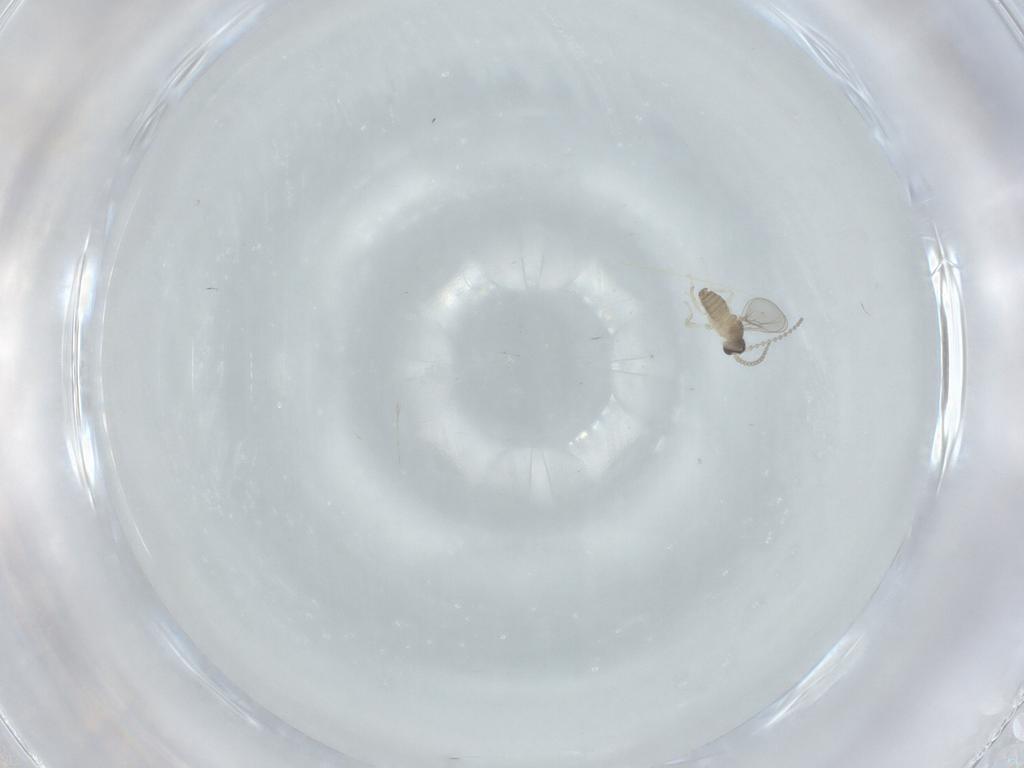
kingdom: Animalia
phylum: Arthropoda
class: Insecta
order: Diptera
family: Cecidomyiidae
